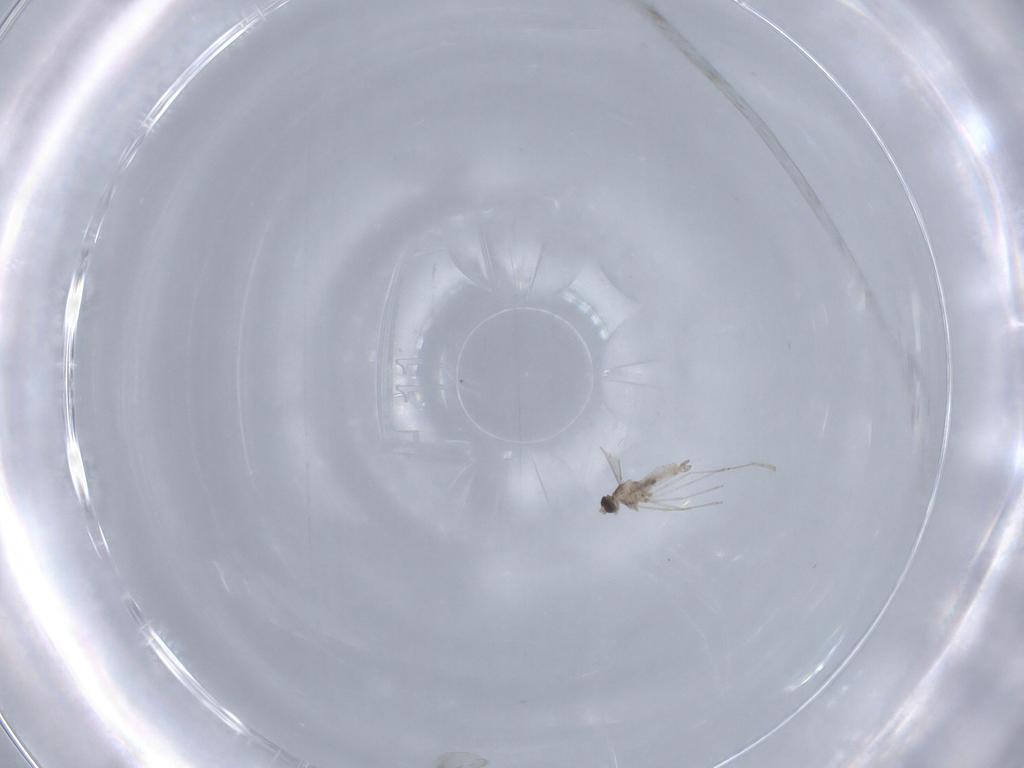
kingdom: Animalia
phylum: Arthropoda
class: Insecta
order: Diptera
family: Cecidomyiidae
